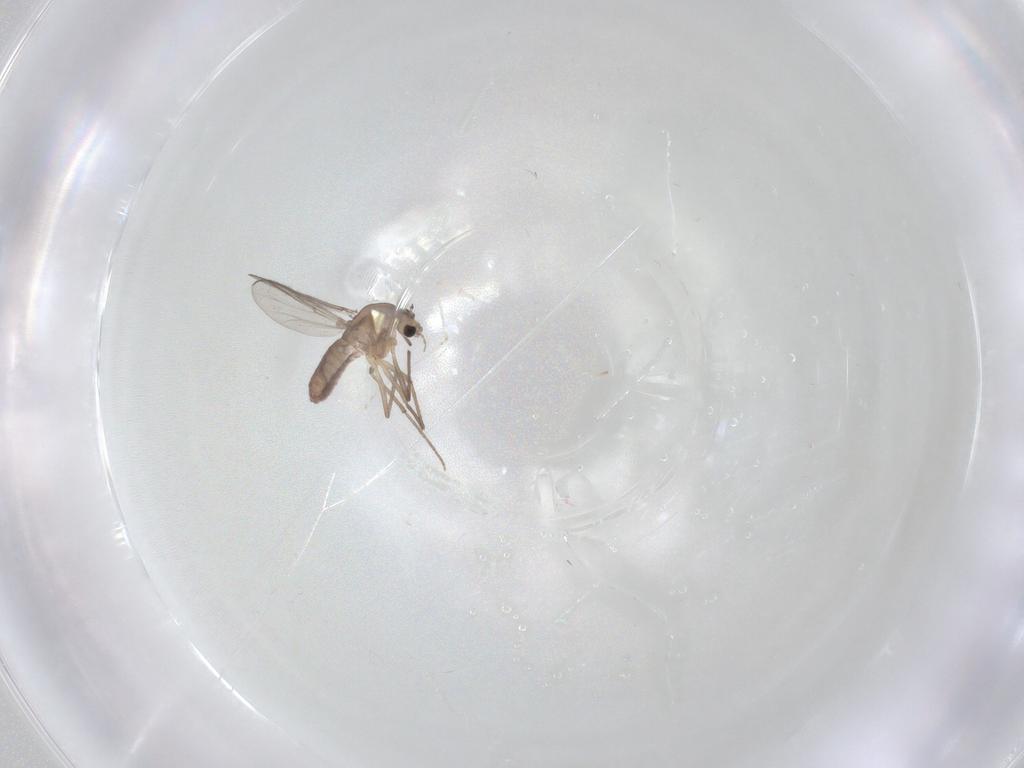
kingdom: Animalia
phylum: Arthropoda
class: Insecta
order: Diptera
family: Chironomidae
